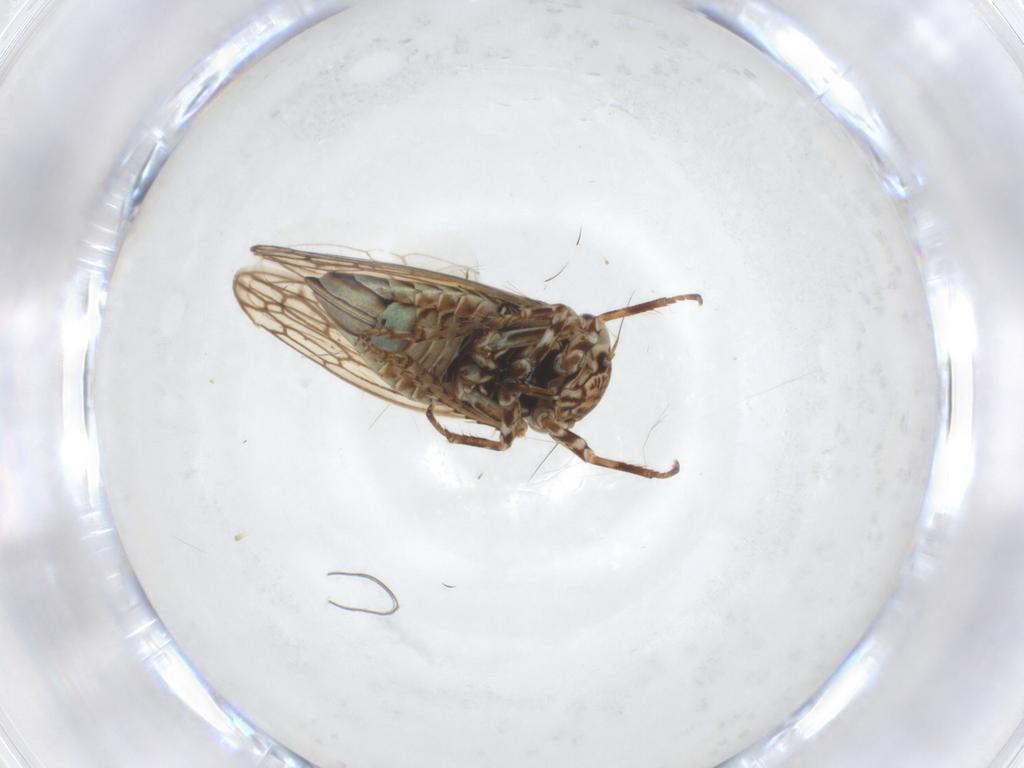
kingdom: Animalia
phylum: Arthropoda
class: Insecta
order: Hemiptera
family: Cicadellidae
